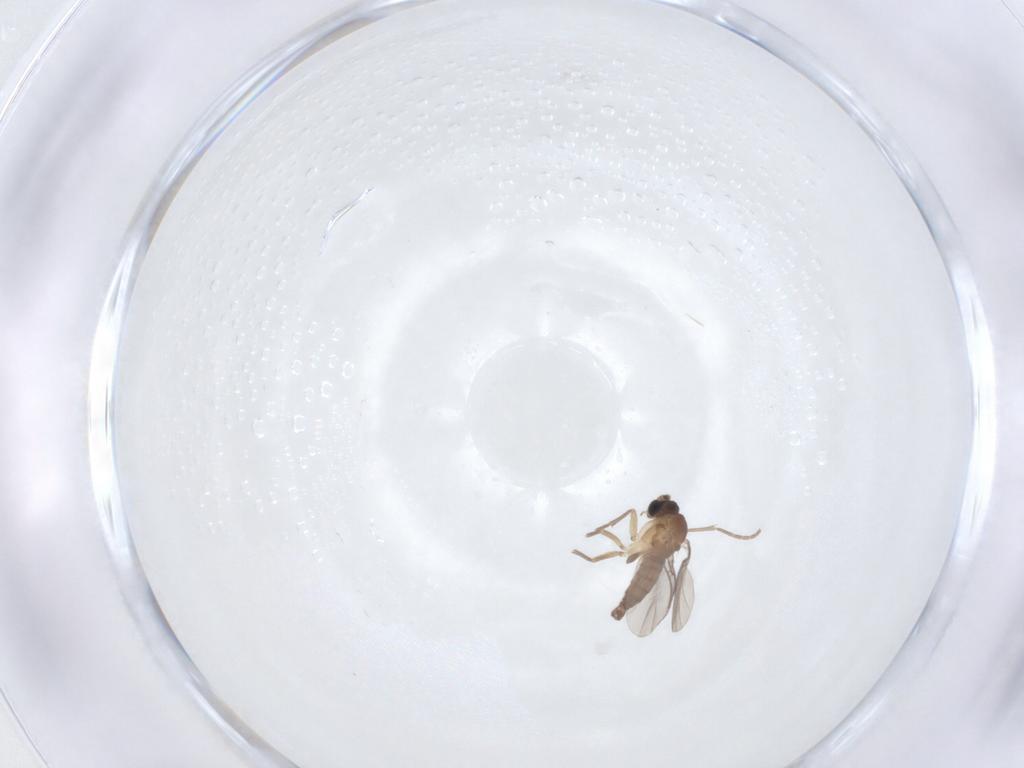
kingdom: Animalia
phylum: Arthropoda
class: Insecta
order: Diptera
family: Sciaridae
